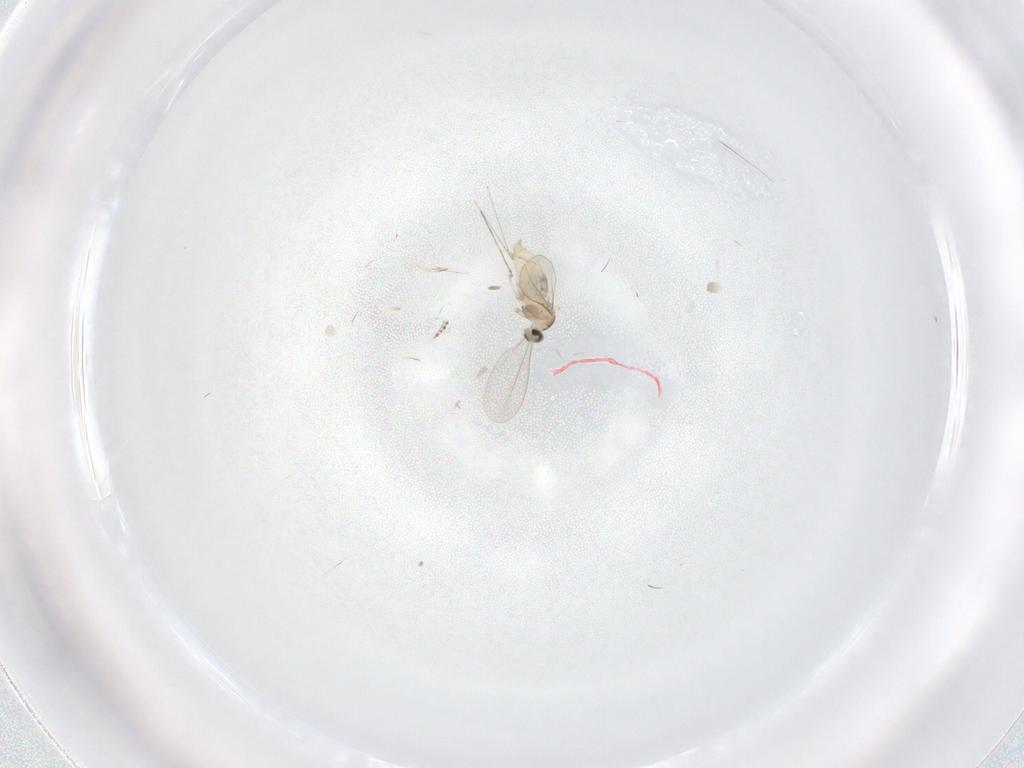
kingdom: Animalia
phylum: Arthropoda
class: Insecta
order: Diptera
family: Cecidomyiidae
